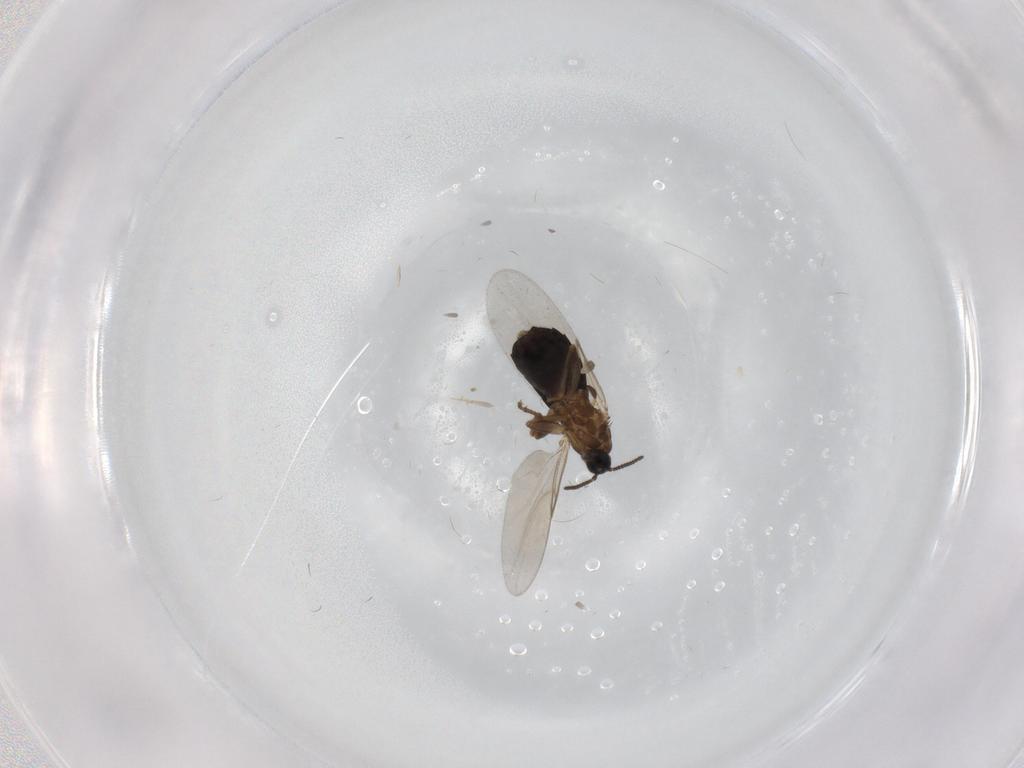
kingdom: Animalia
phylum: Arthropoda
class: Insecta
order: Diptera
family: Scatopsidae
